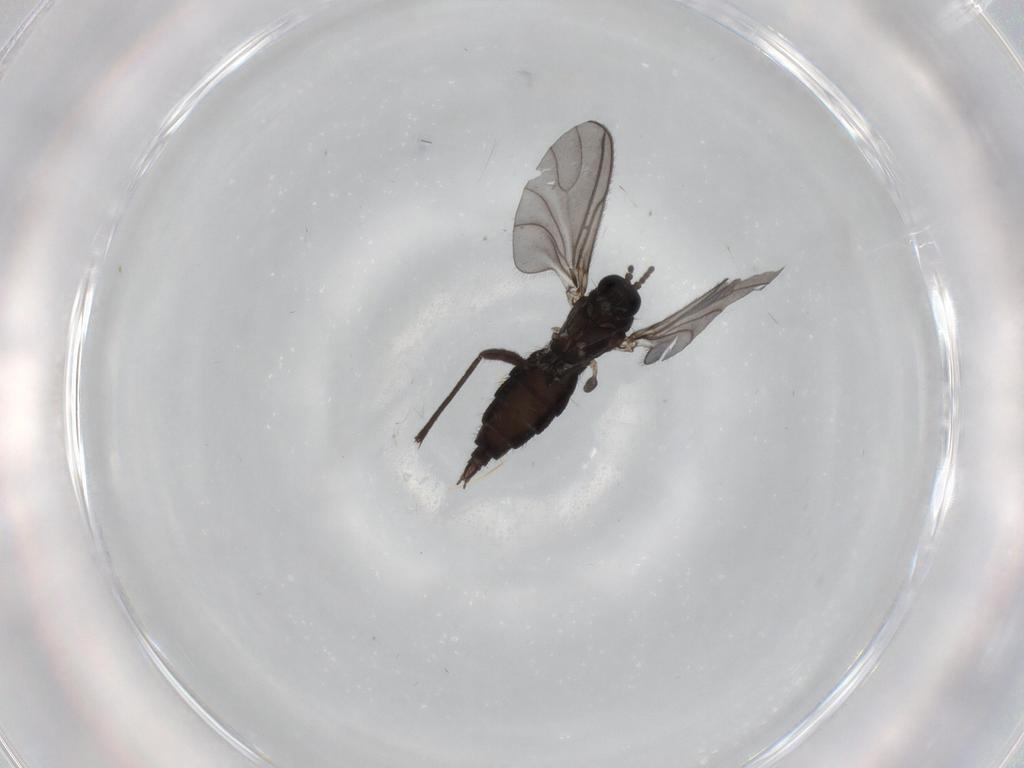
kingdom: Animalia
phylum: Arthropoda
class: Insecta
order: Diptera
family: Sciaridae
